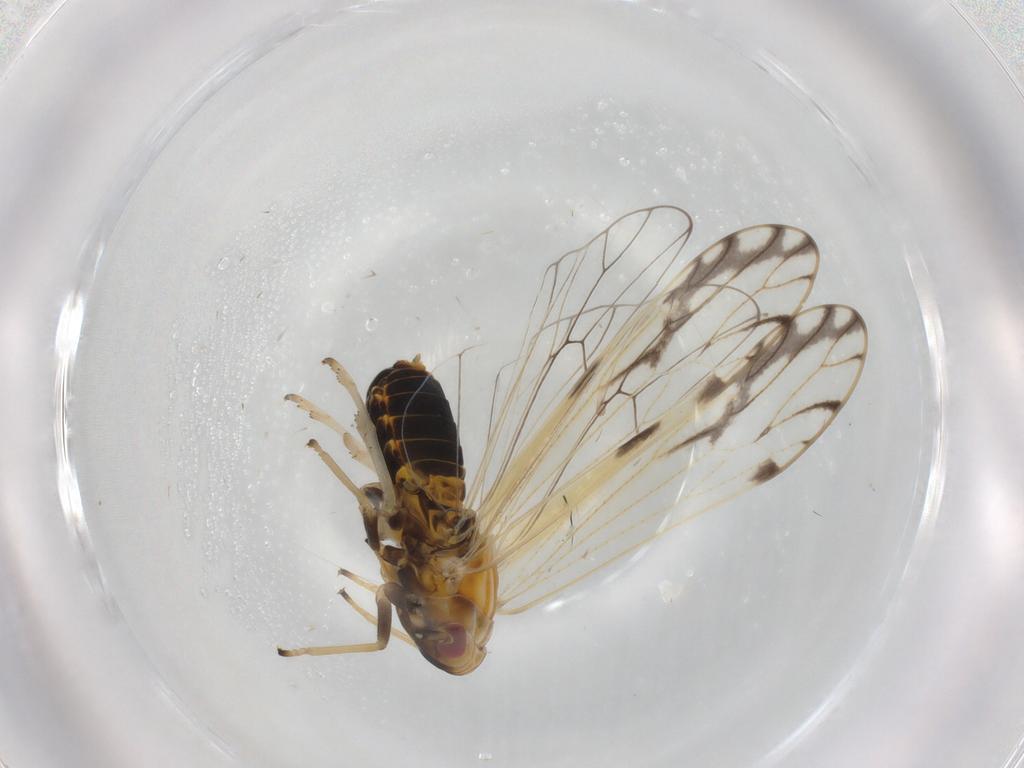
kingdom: Animalia
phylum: Arthropoda
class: Insecta
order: Hemiptera
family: Delphacidae
